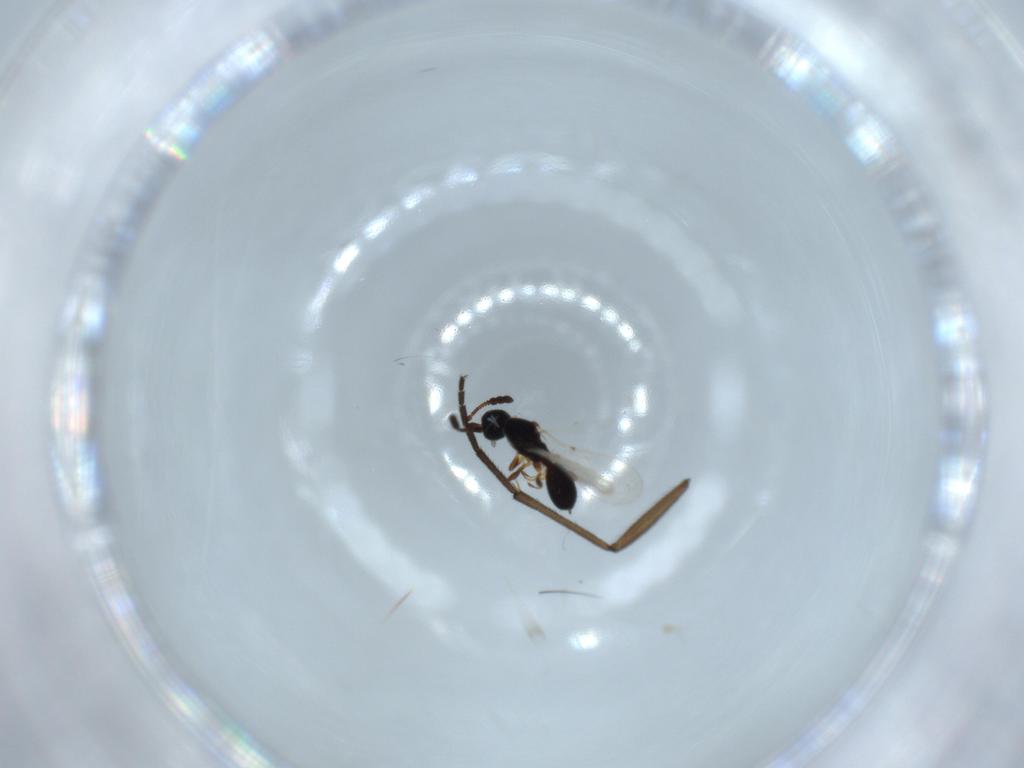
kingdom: Animalia
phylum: Arthropoda
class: Insecta
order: Hymenoptera
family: Diapriidae
